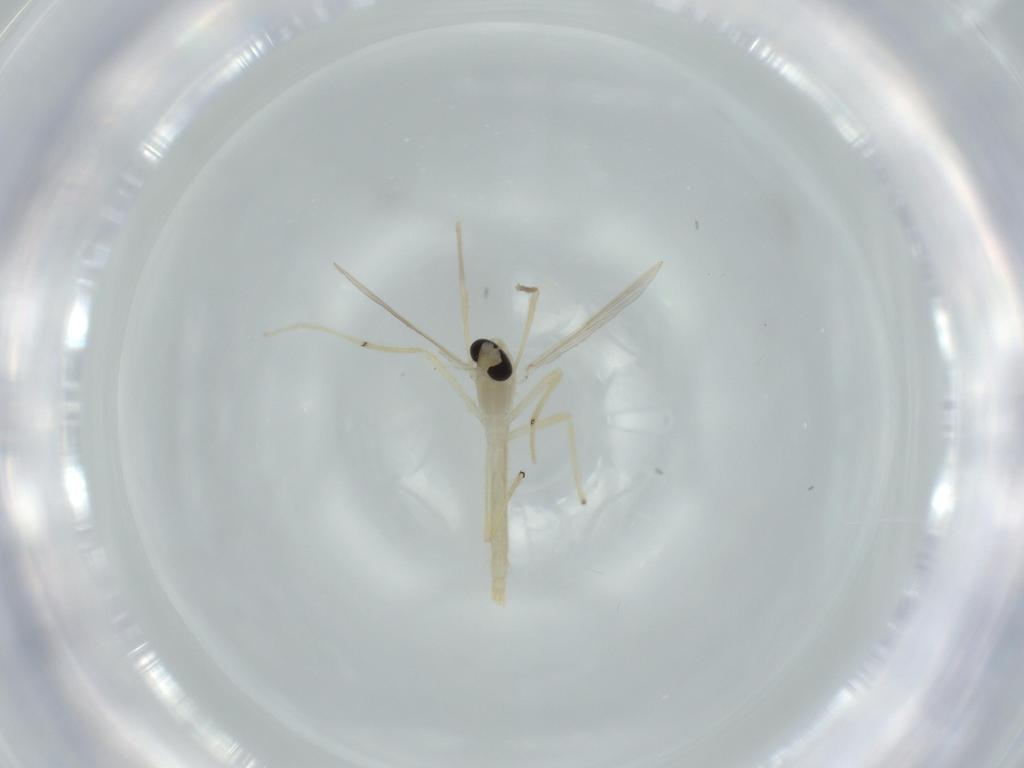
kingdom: Animalia
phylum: Arthropoda
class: Insecta
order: Diptera
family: Chironomidae
